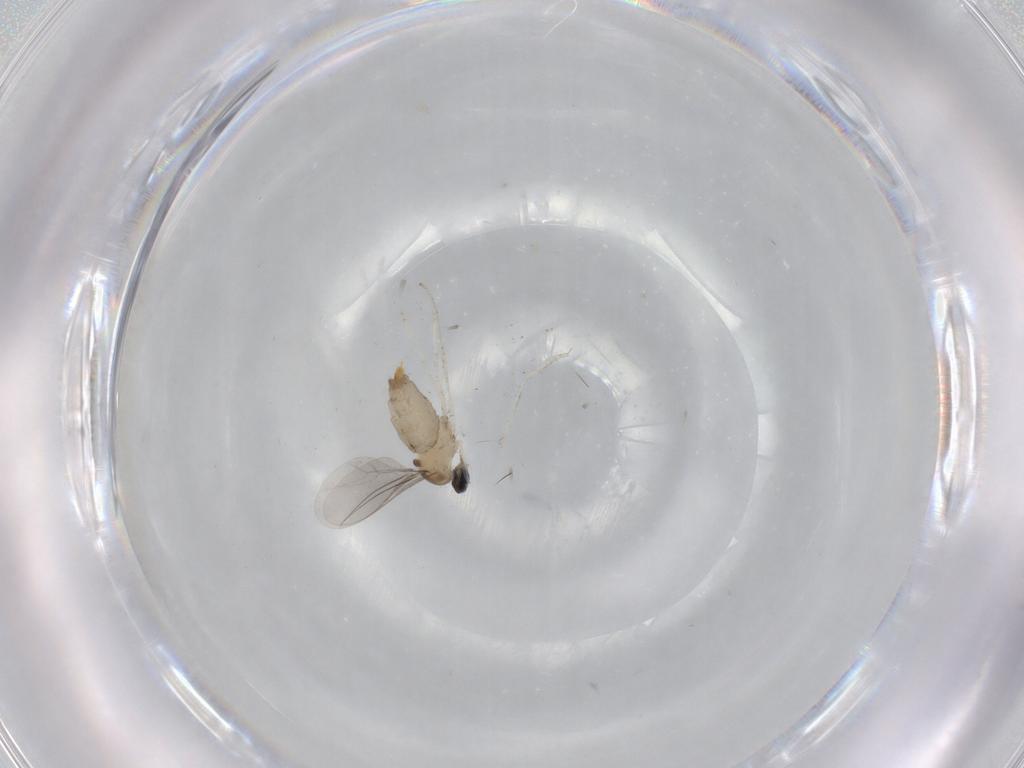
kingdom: Animalia
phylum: Arthropoda
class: Insecta
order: Diptera
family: Cecidomyiidae
